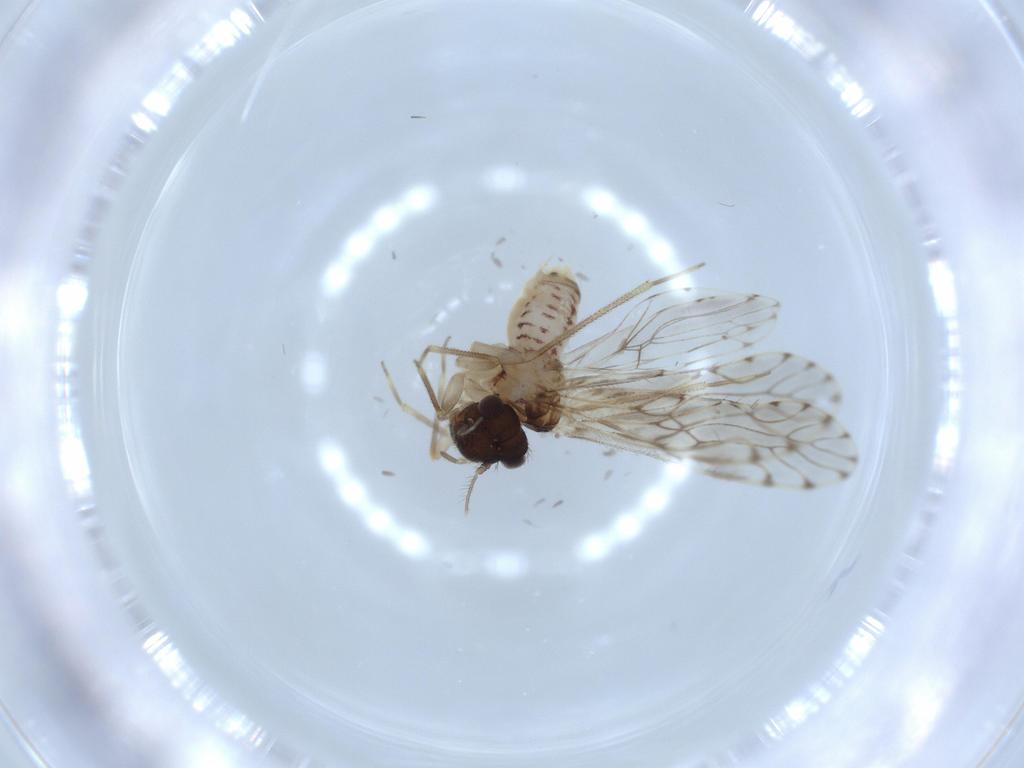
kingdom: Animalia
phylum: Arthropoda
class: Insecta
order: Psocodea
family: Epipsocidae
